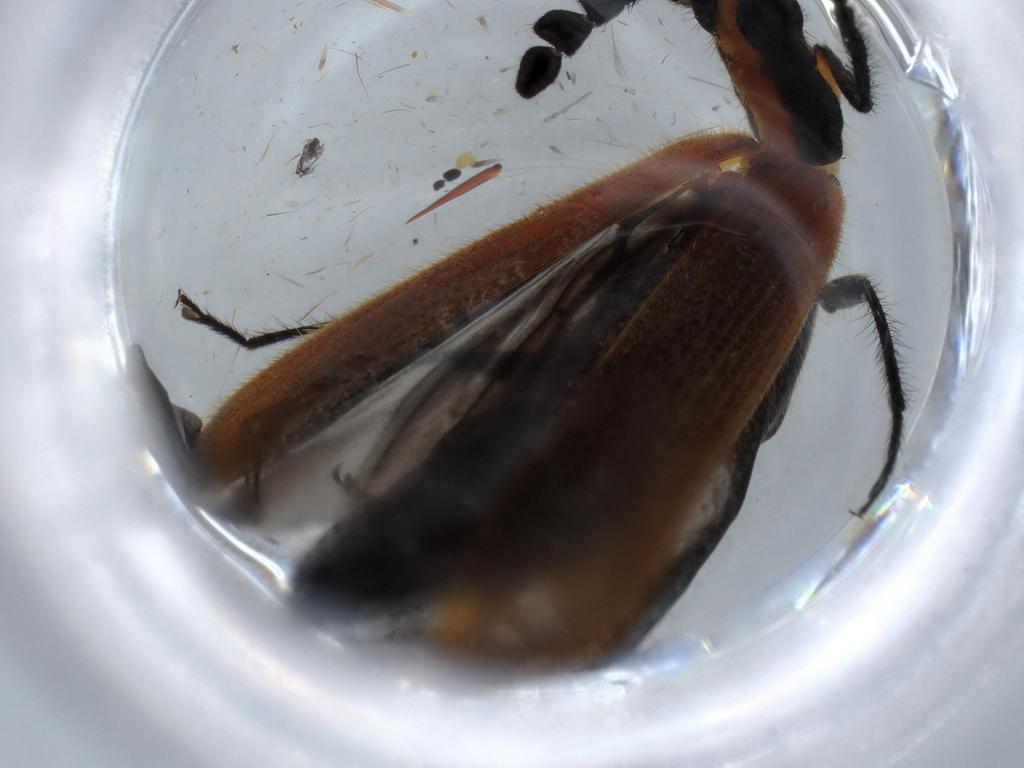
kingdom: Animalia
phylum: Arthropoda
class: Insecta
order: Coleoptera
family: Cleridae
